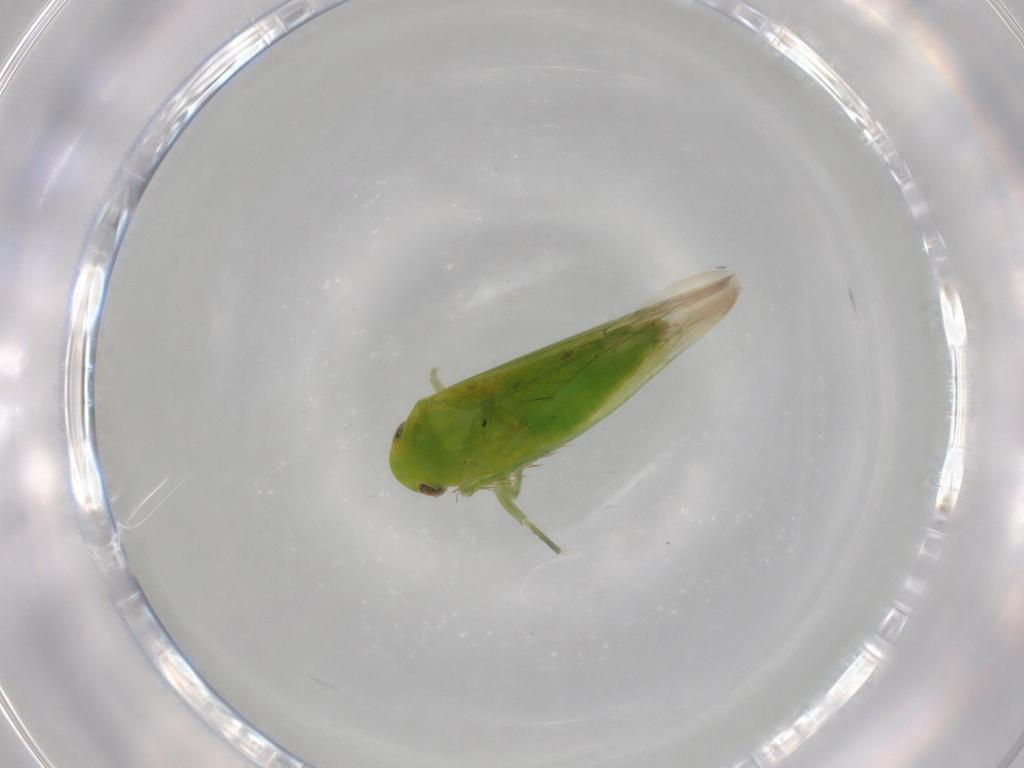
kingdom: Animalia
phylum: Arthropoda
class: Insecta
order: Hemiptera
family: Cicadellidae
